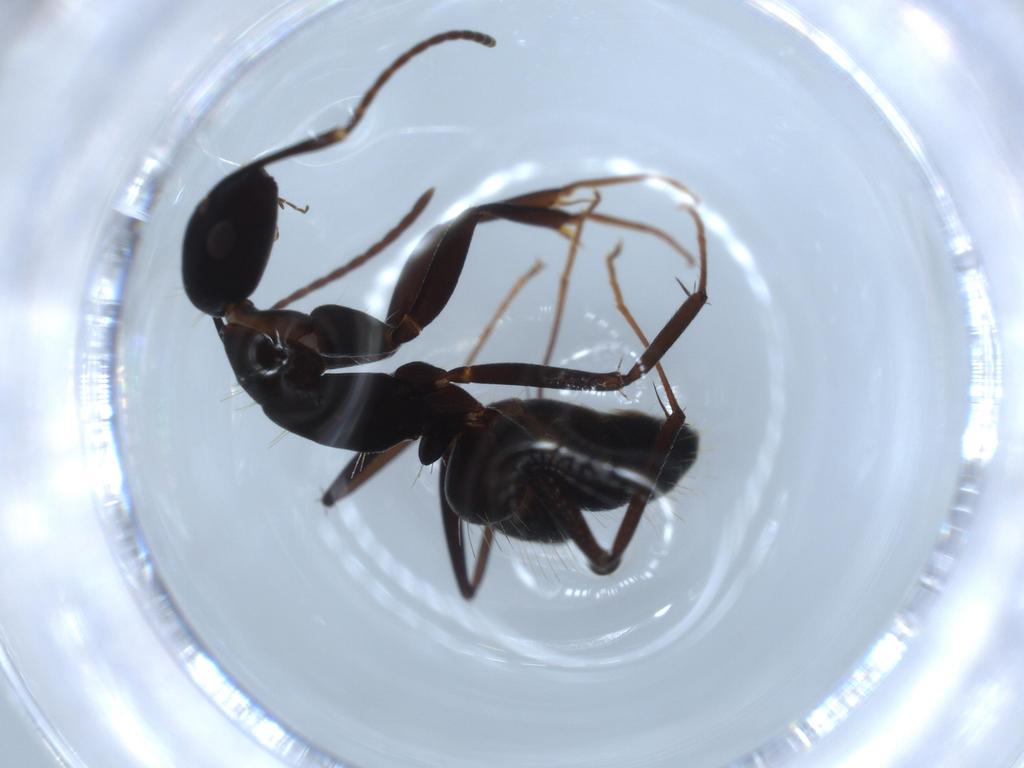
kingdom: Animalia
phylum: Arthropoda
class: Insecta
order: Hymenoptera
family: Formicidae
